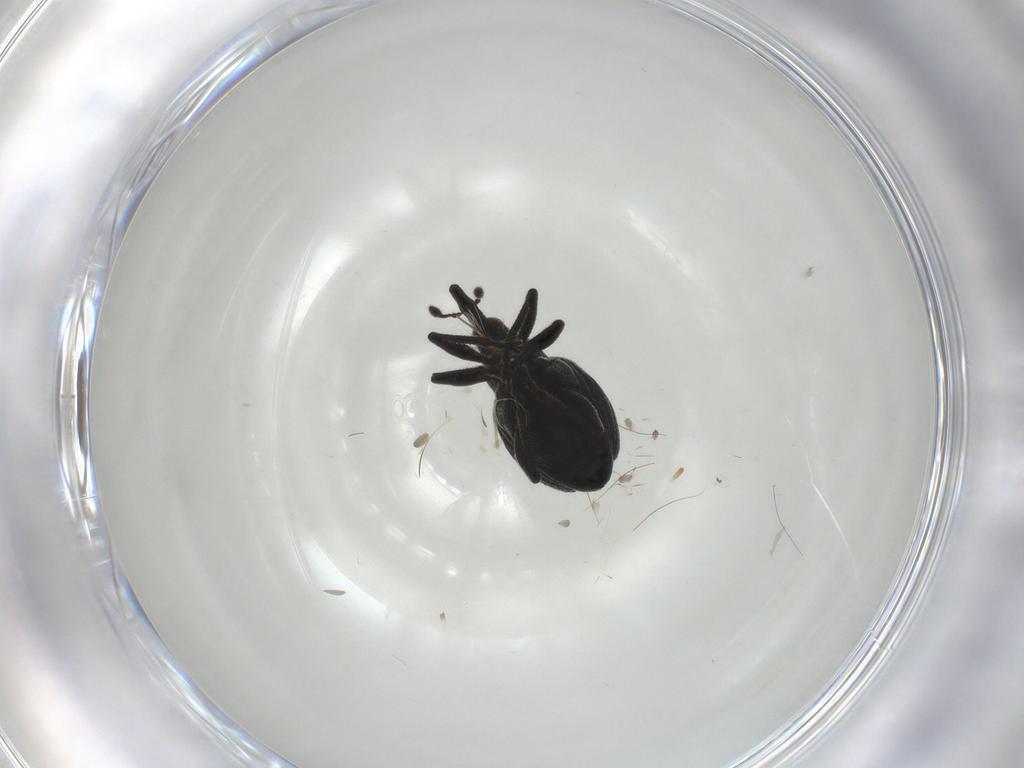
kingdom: Animalia
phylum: Arthropoda
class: Insecta
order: Coleoptera
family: Brentidae
